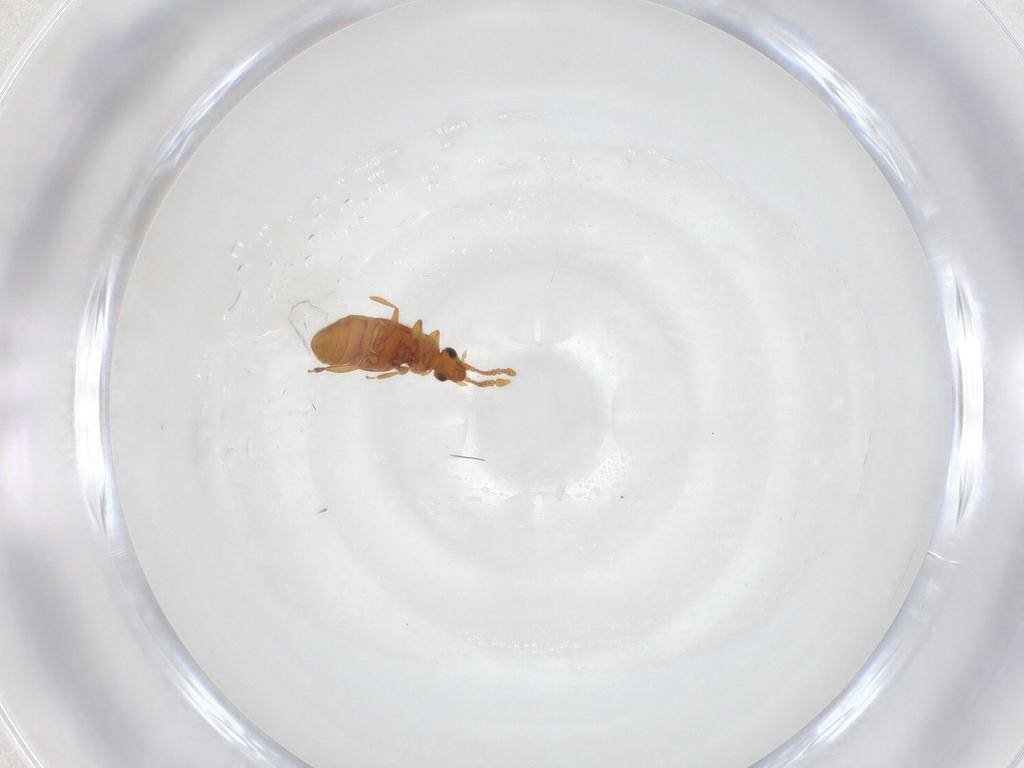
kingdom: Animalia
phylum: Arthropoda
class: Insecta
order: Coleoptera
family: Staphylinidae
